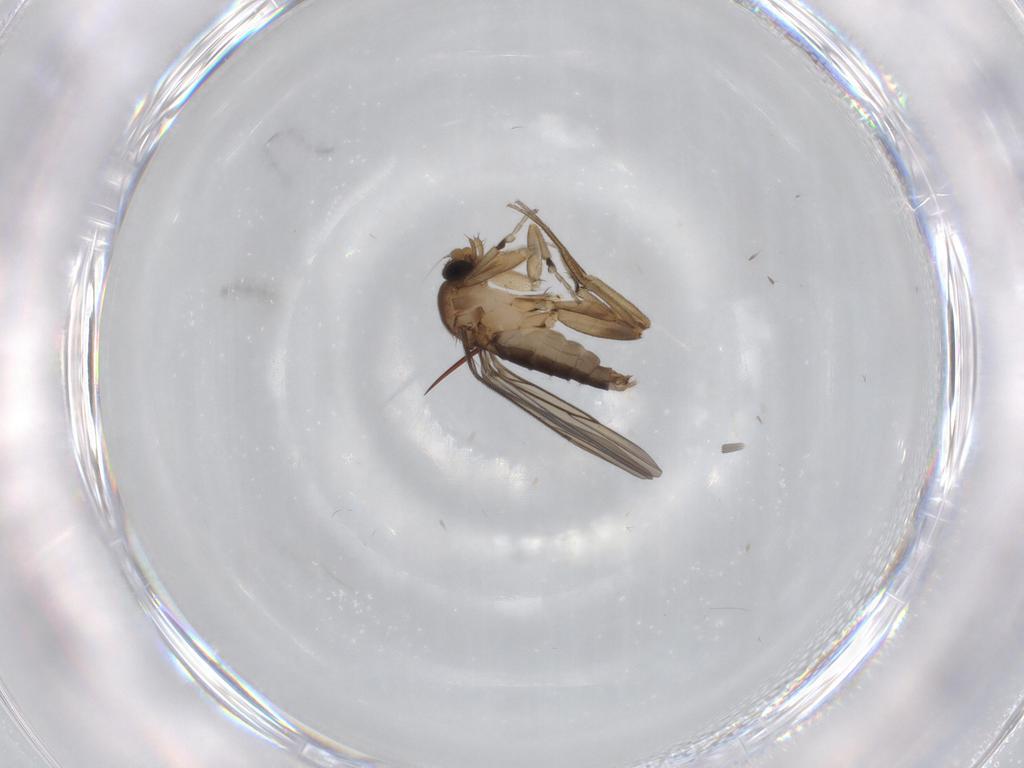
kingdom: Animalia
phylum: Arthropoda
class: Insecta
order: Diptera
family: Phoridae
